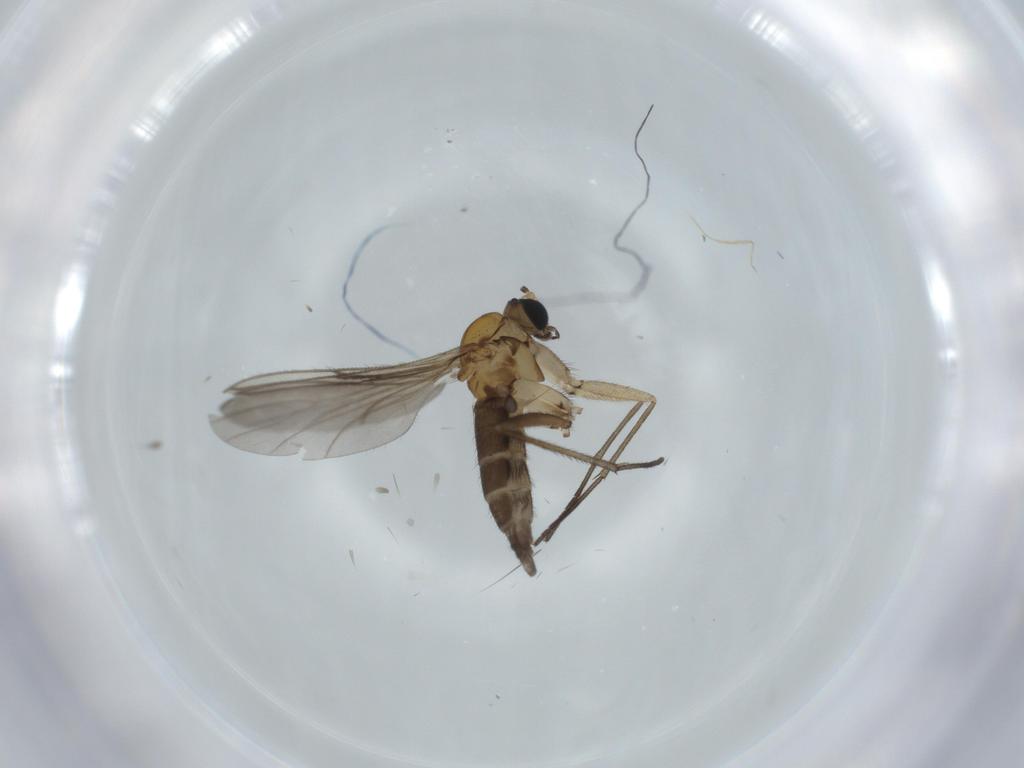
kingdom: Animalia
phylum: Arthropoda
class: Insecta
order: Diptera
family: Sciaridae
